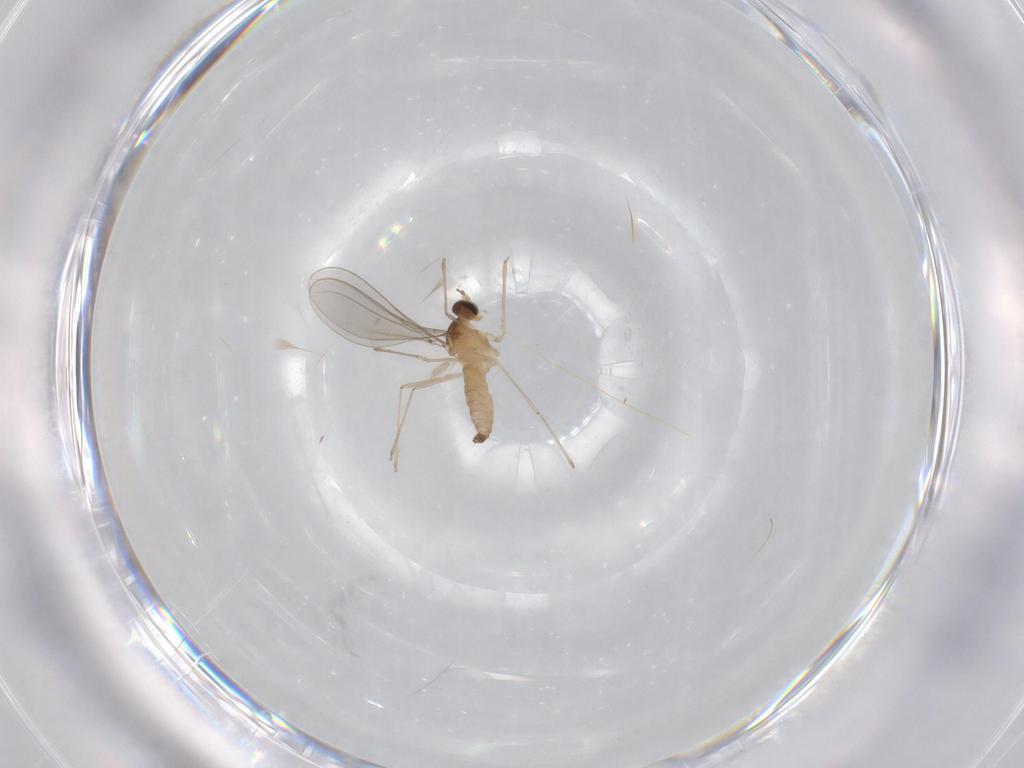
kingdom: Animalia
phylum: Arthropoda
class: Insecta
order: Diptera
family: Cecidomyiidae
